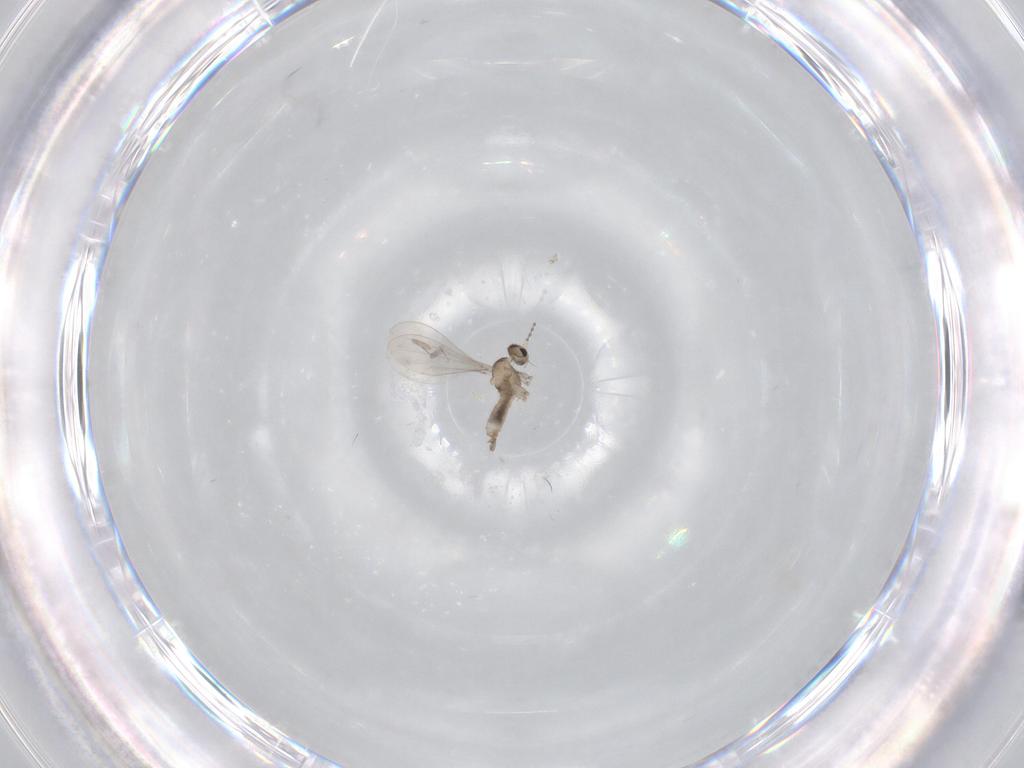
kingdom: Animalia
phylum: Arthropoda
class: Insecta
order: Diptera
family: Cecidomyiidae
